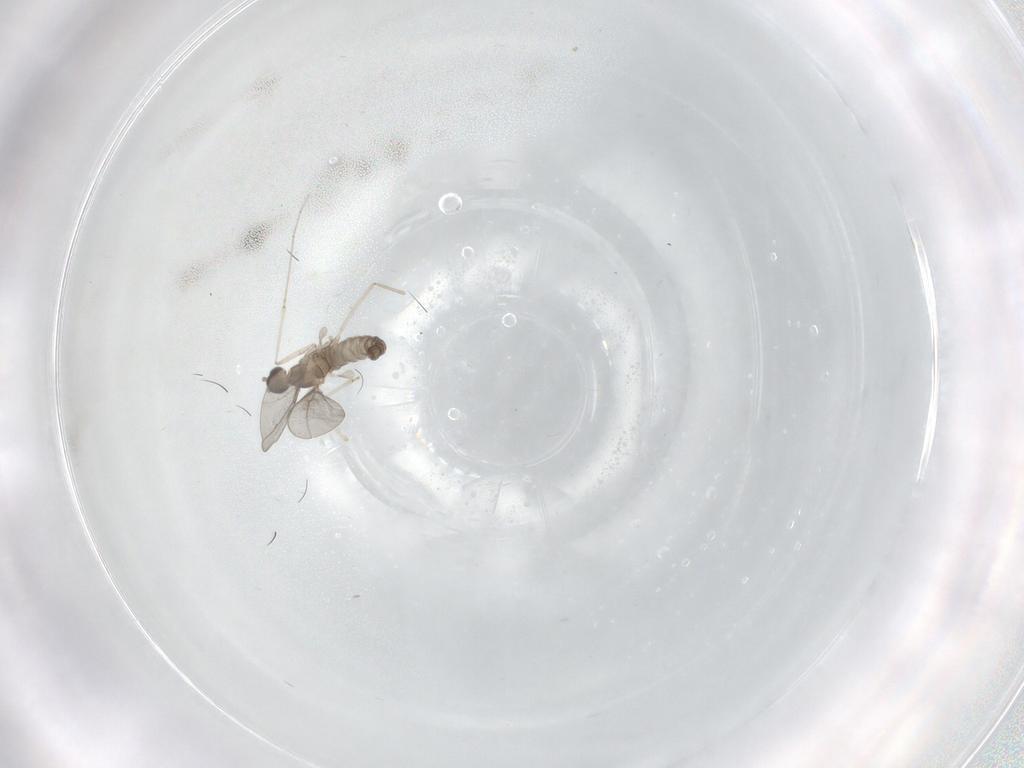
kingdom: Animalia
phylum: Arthropoda
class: Insecta
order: Diptera
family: Cecidomyiidae
